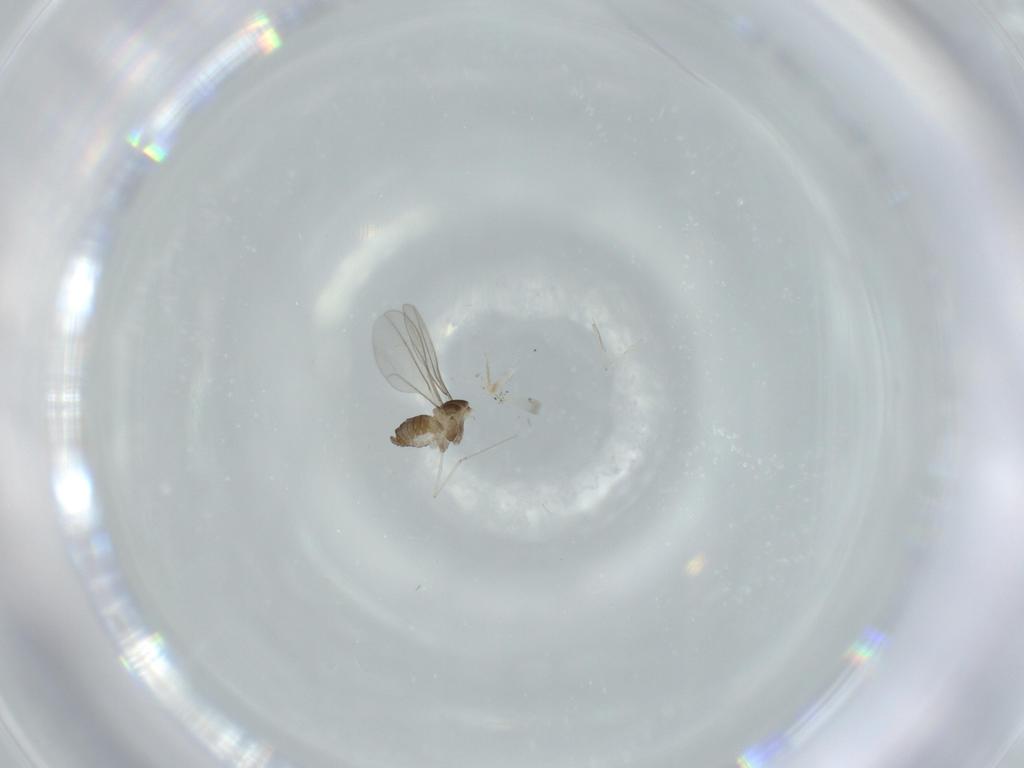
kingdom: Animalia
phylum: Arthropoda
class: Insecta
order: Diptera
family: Cecidomyiidae
